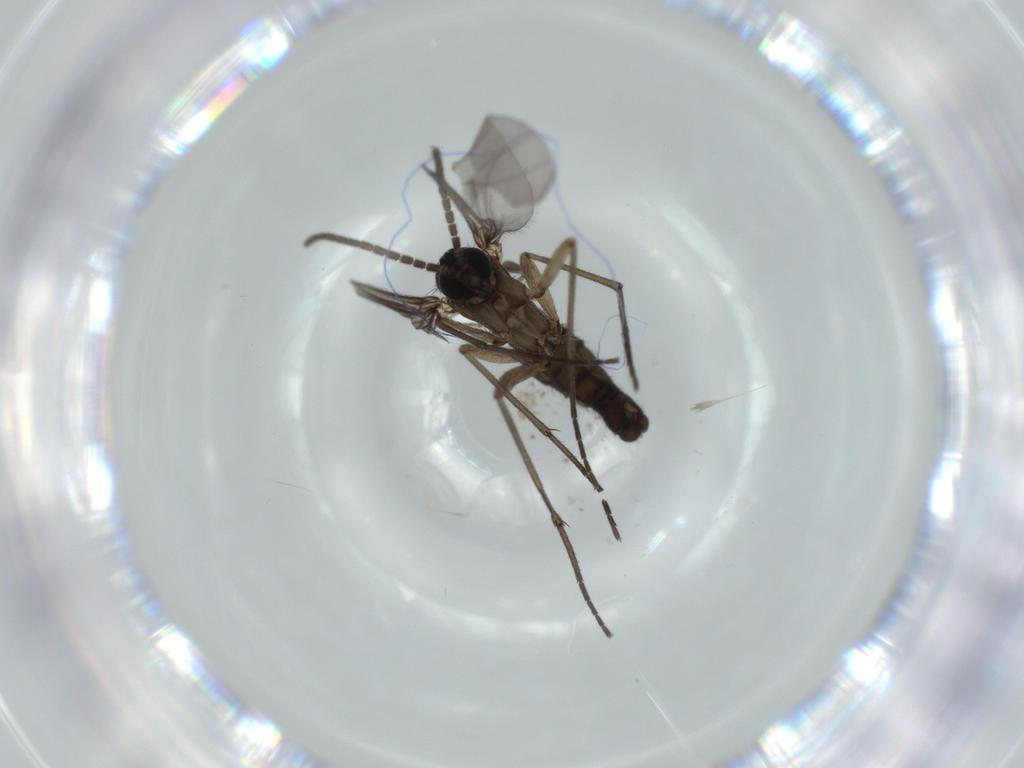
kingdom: Animalia
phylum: Arthropoda
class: Insecta
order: Diptera
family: Sciaridae
